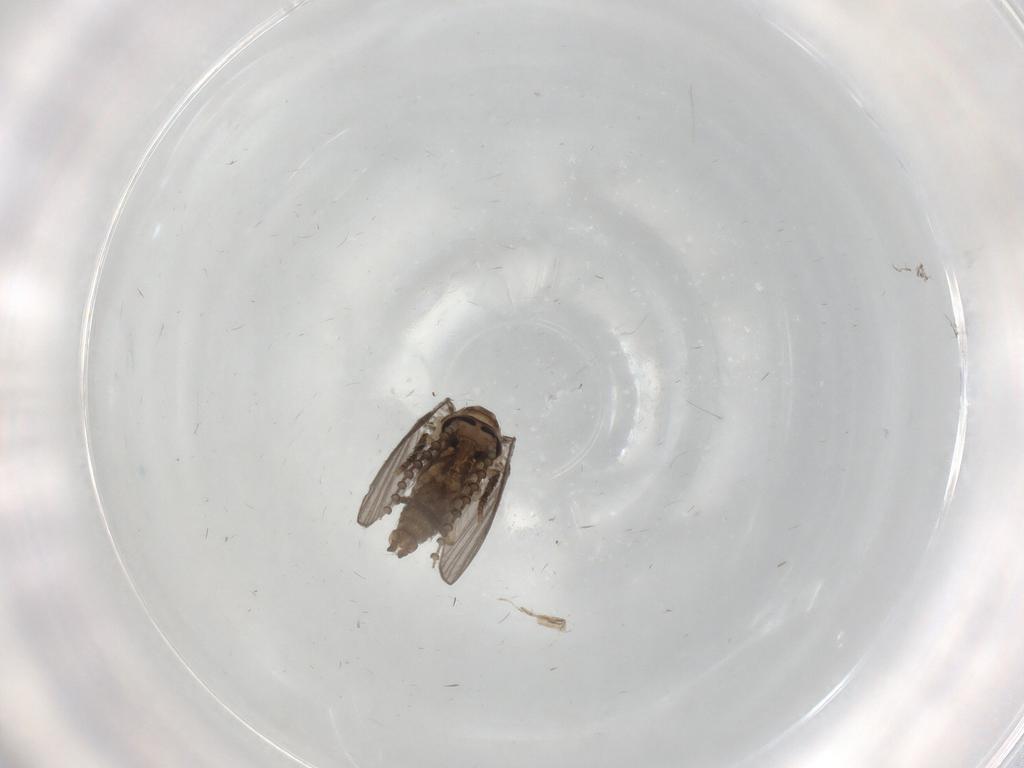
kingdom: Animalia
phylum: Arthropoda
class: Insecta
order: Diptera
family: Psychodidae
